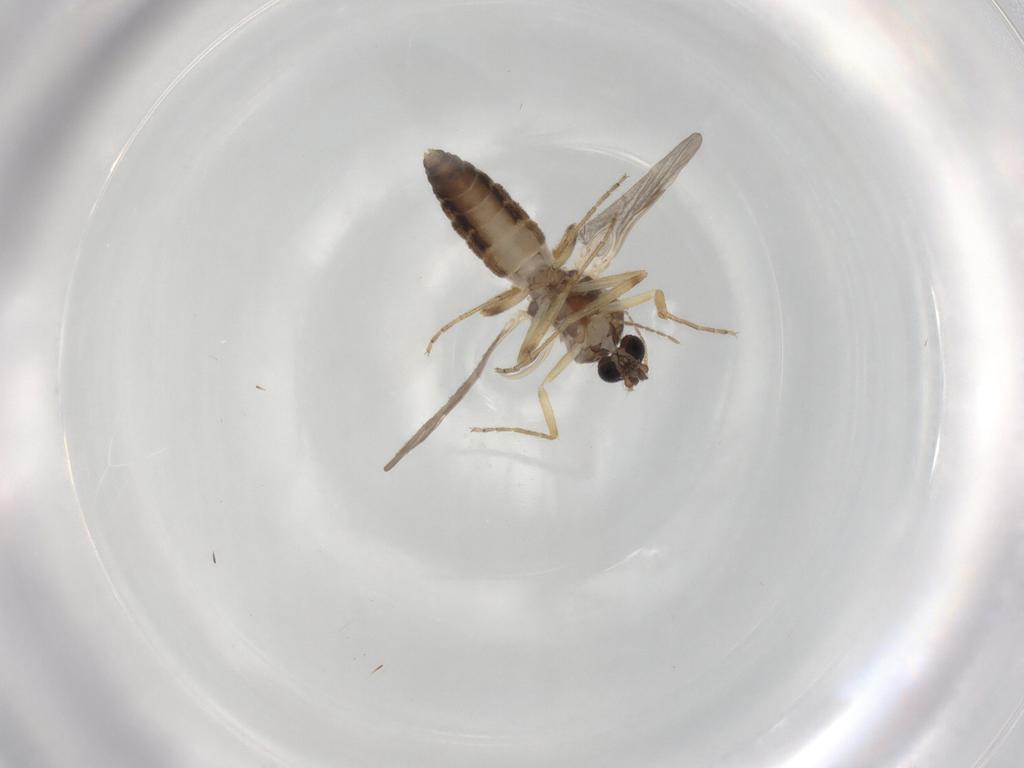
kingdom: Animalia
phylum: Arthropoda
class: Insecta
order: Diptera
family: Ceratopogonidae
